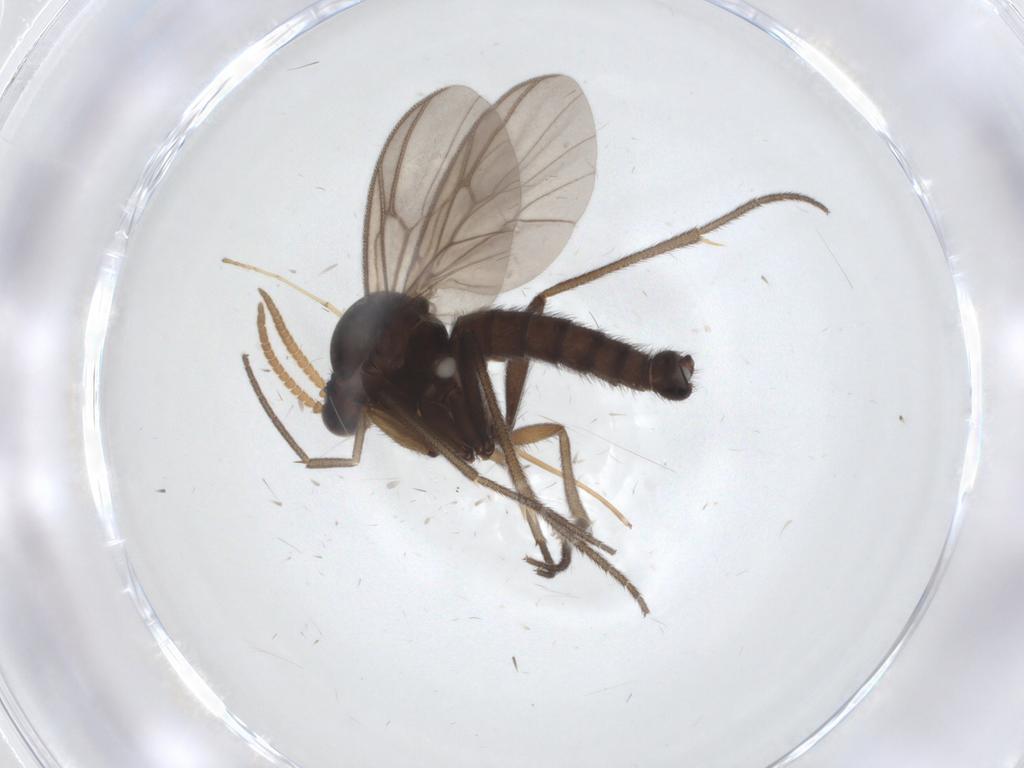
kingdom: Animalia
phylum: Arthropoda
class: Insecta
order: Diptera
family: Mycetophilidae
